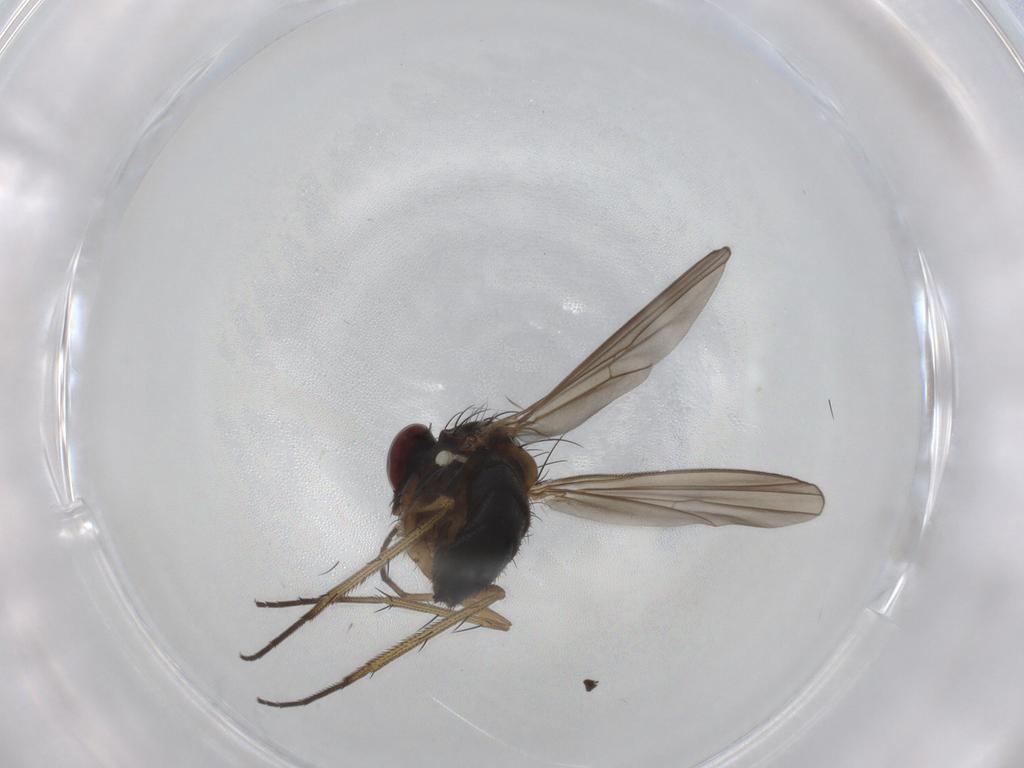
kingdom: Animalia
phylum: Arthropoda
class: Insecta
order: Diptera
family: Dolichopodidae
